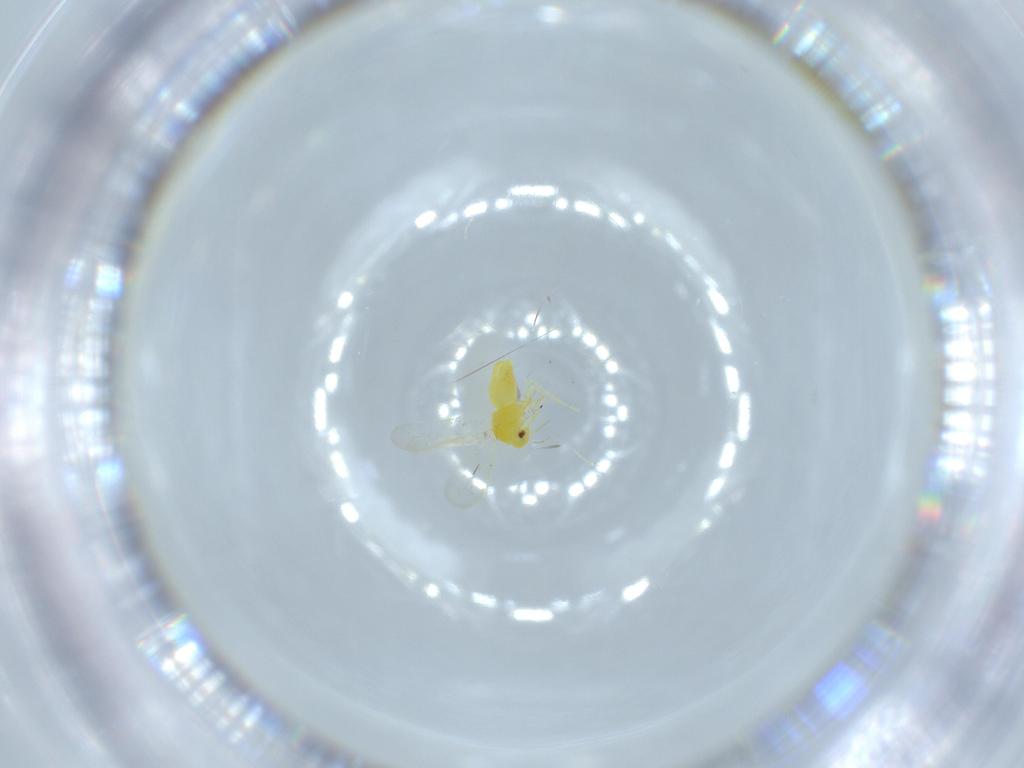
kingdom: Animalia
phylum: Arthropoda
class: Insecta
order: Hemiptera
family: Aleyrodidae
